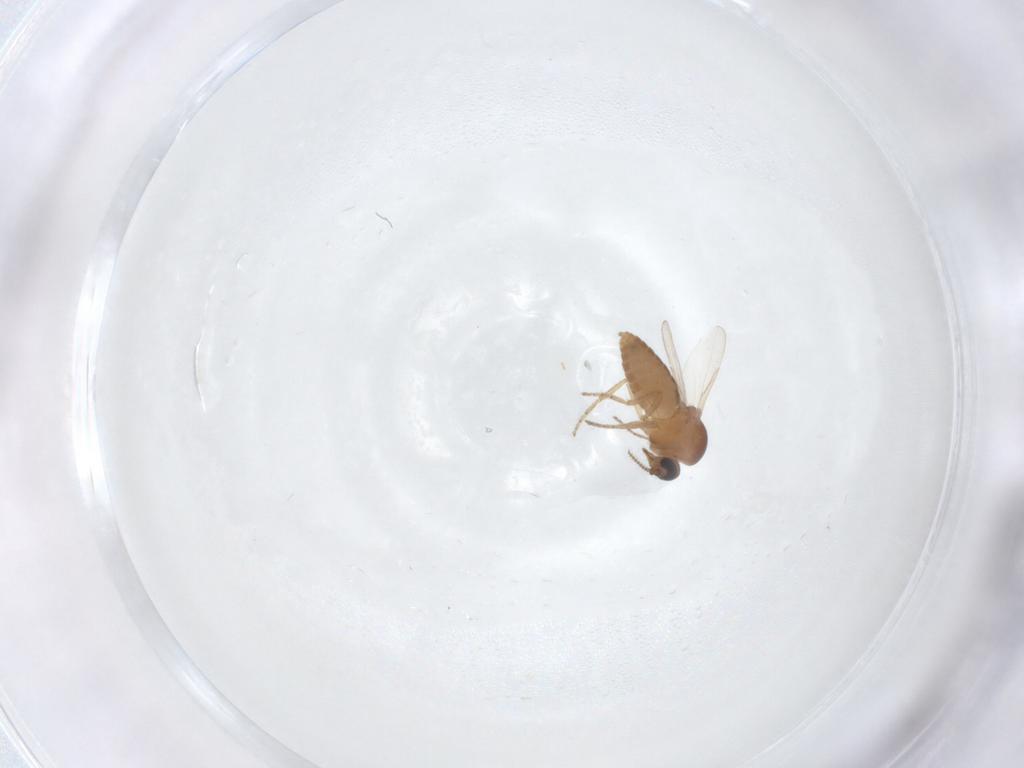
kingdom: Animalia
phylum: Arthropoda
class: Insecta
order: Diptera
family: Ceratopogonidae
